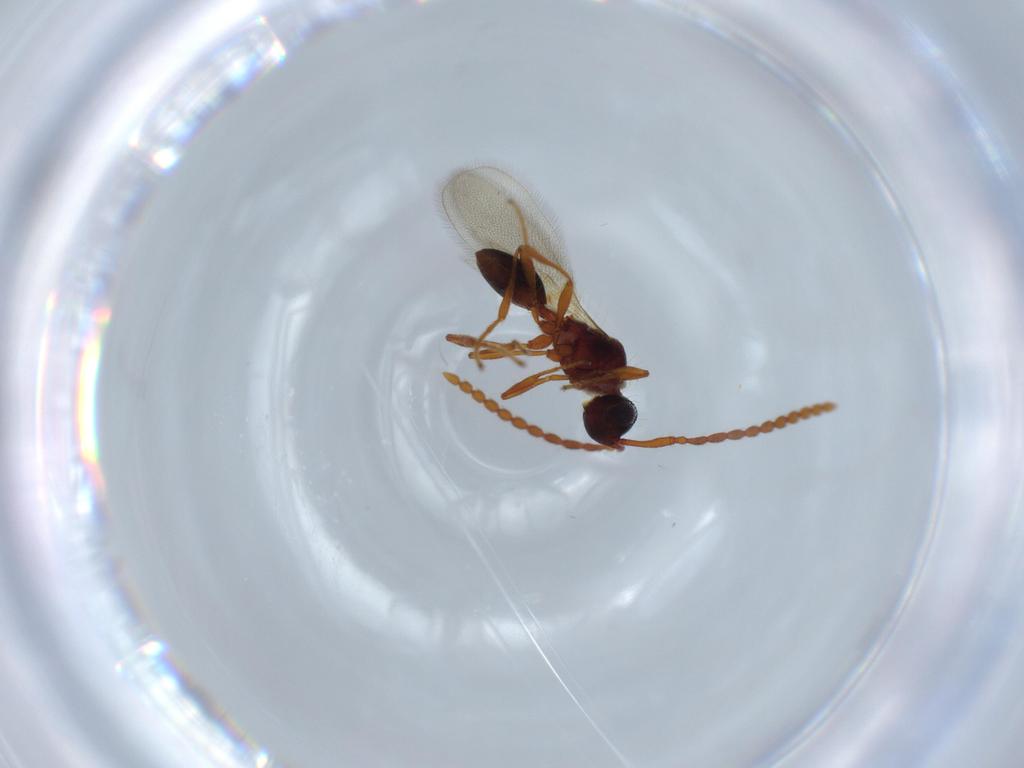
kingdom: Animalia
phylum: Arthropoda
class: Insecta
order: Hymenoptera
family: Diapriidae
